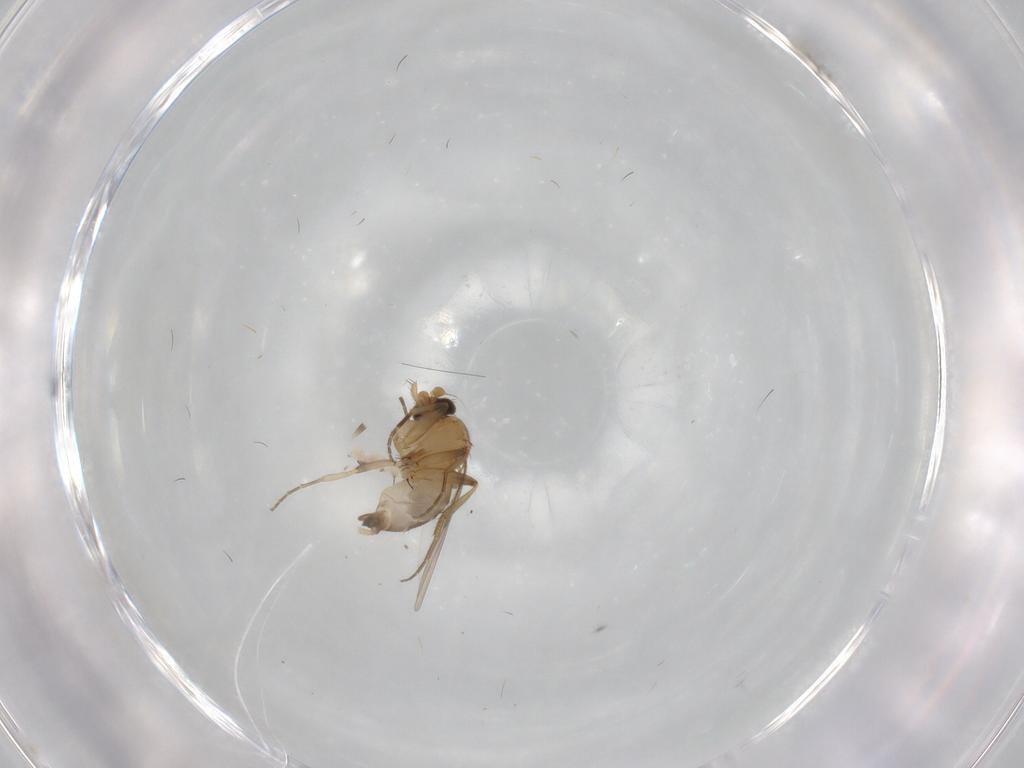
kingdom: Animalia
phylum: Arthropoda
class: Insecta
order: Diptera
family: Phoridae
